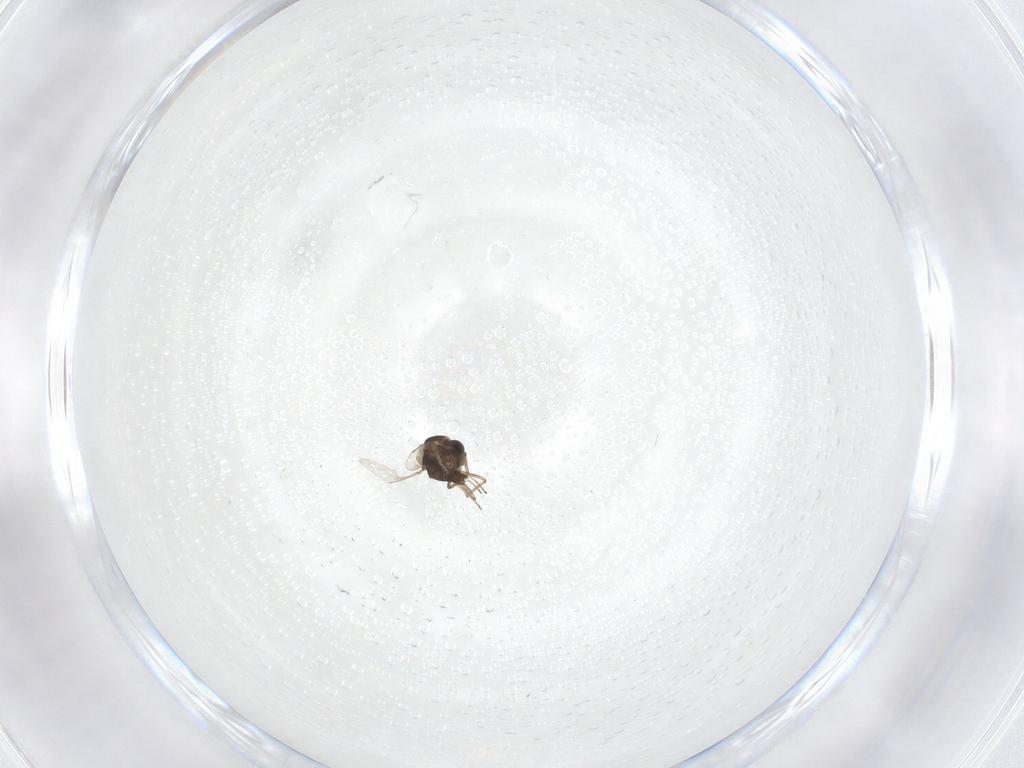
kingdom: Animalia
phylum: Arthropoda
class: Insecta
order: Diptera
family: Ceratopogonidae
